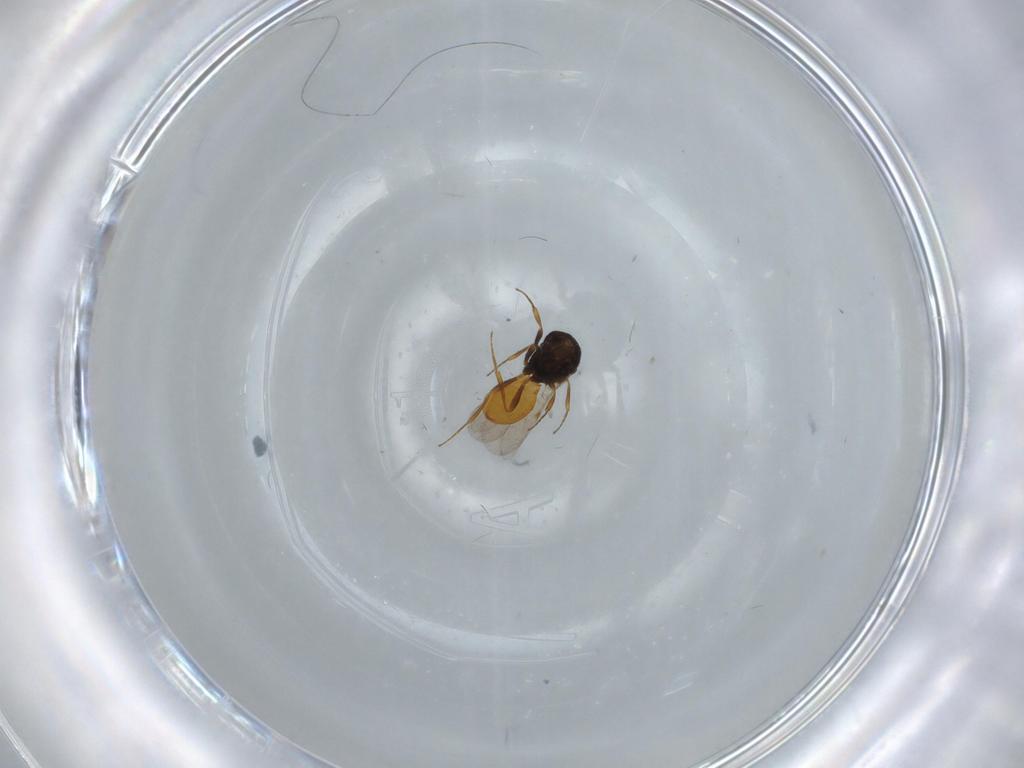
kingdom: Animalia
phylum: Arthropoda
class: Insecta
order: Hymenoptera
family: Scelionidae
